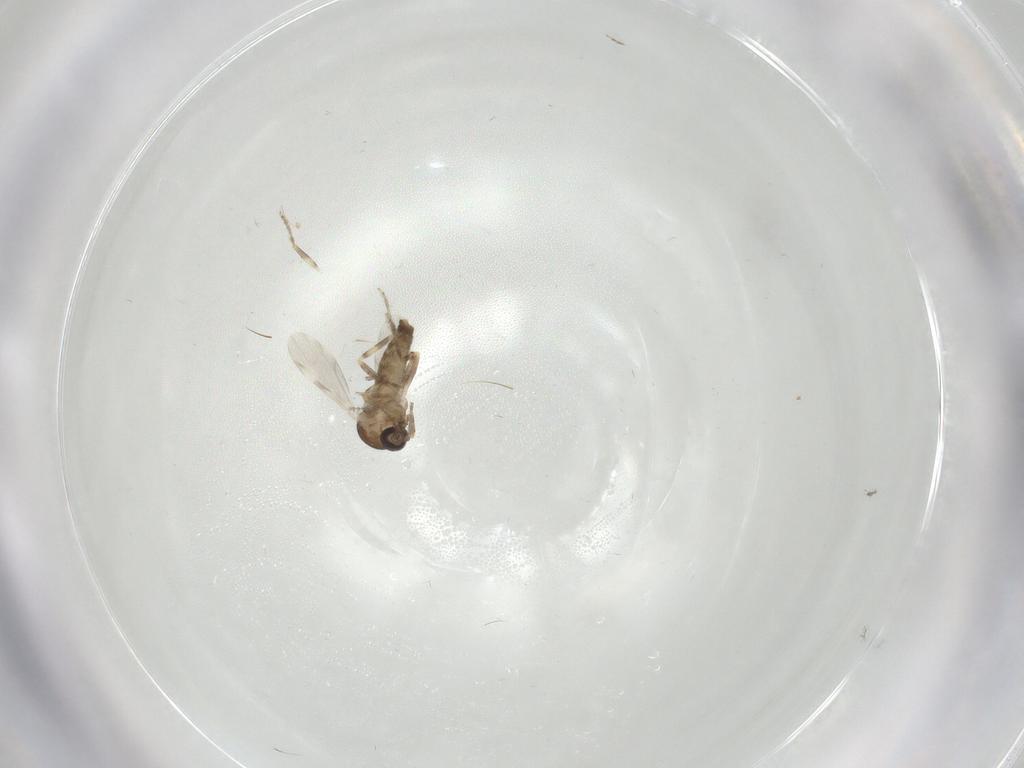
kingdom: Animalia
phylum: Arthropoda
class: Insecta
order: Diptera
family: Ceratopogonidae
